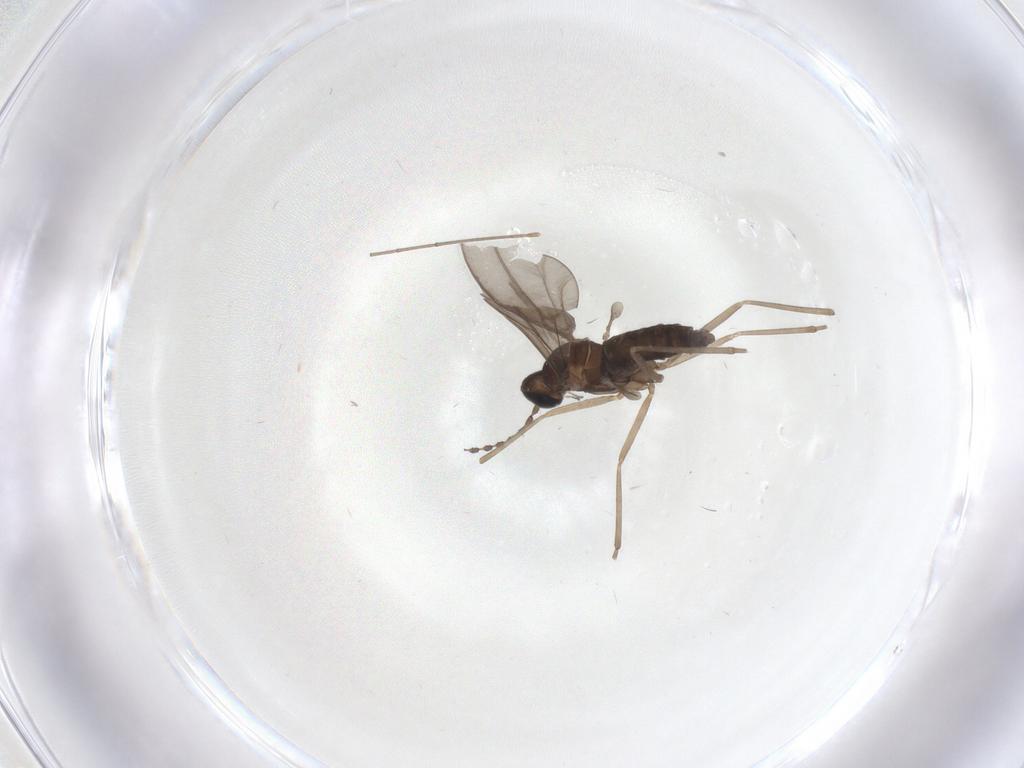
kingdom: Animalia
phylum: Arthropoda
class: Insecta
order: Diptera
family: Cecidomyiidae
